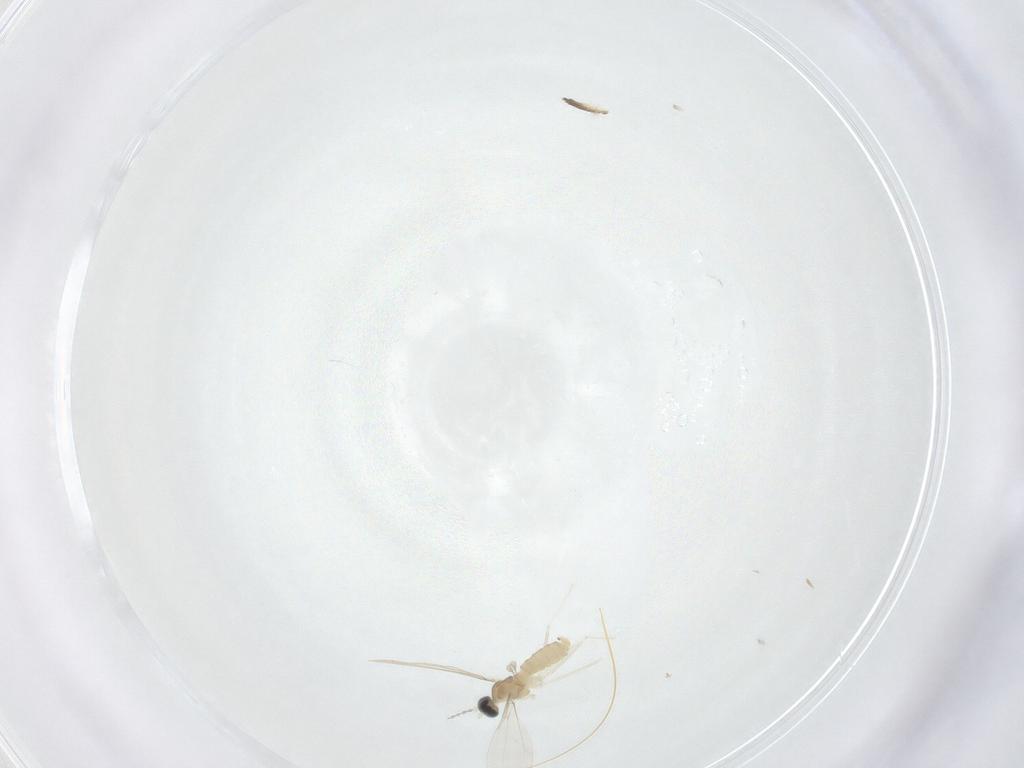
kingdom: Animalia
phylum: Arthropoda
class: Insecta
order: Diptera
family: Cecidomyiidae
